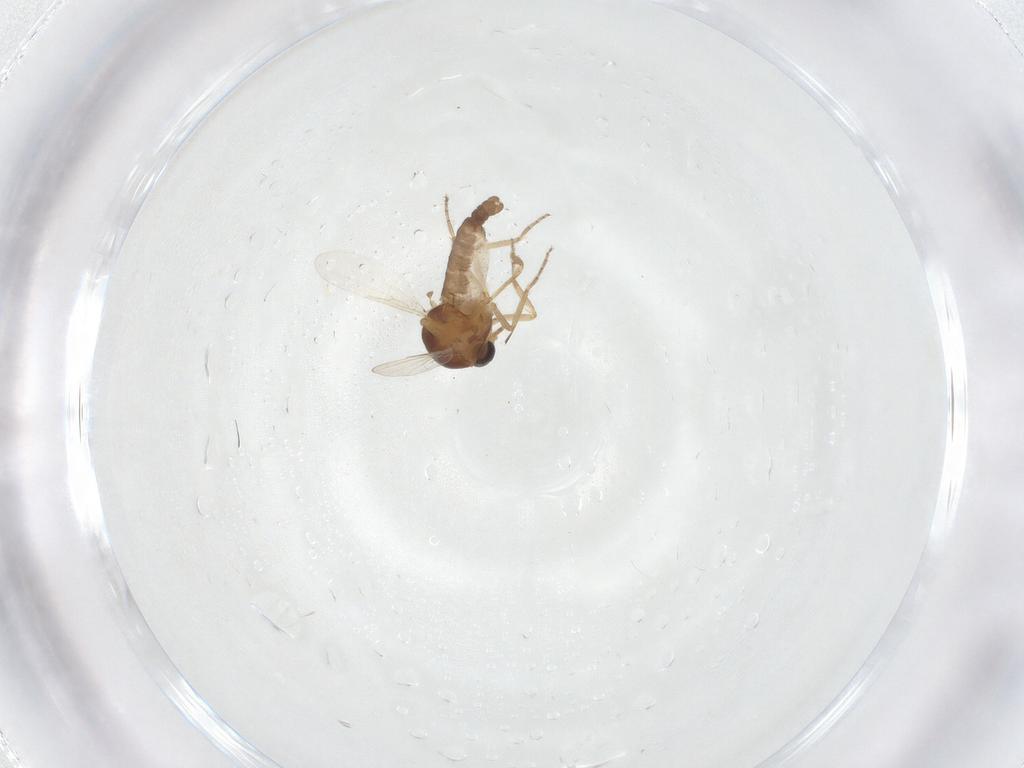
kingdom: Animalia
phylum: Arthropoda
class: Insecta
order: Diptera
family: Ceratopogonidae
